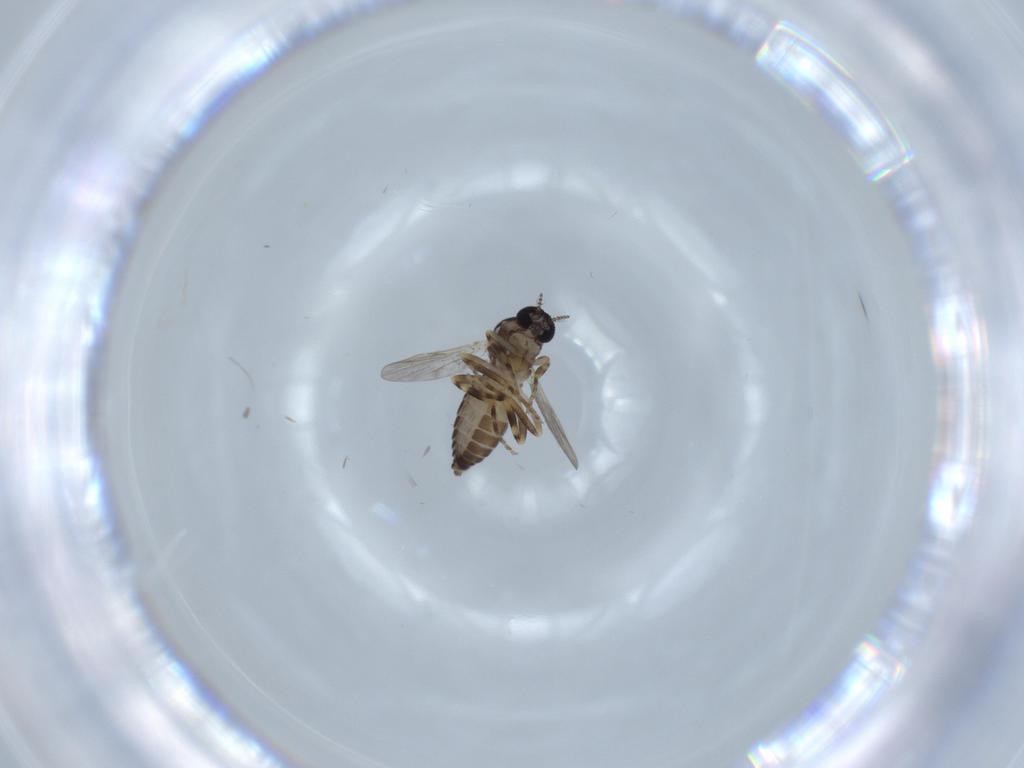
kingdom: Animalia
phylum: Arthropoda
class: Insecta
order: Diptera
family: Ceratopogonidae
